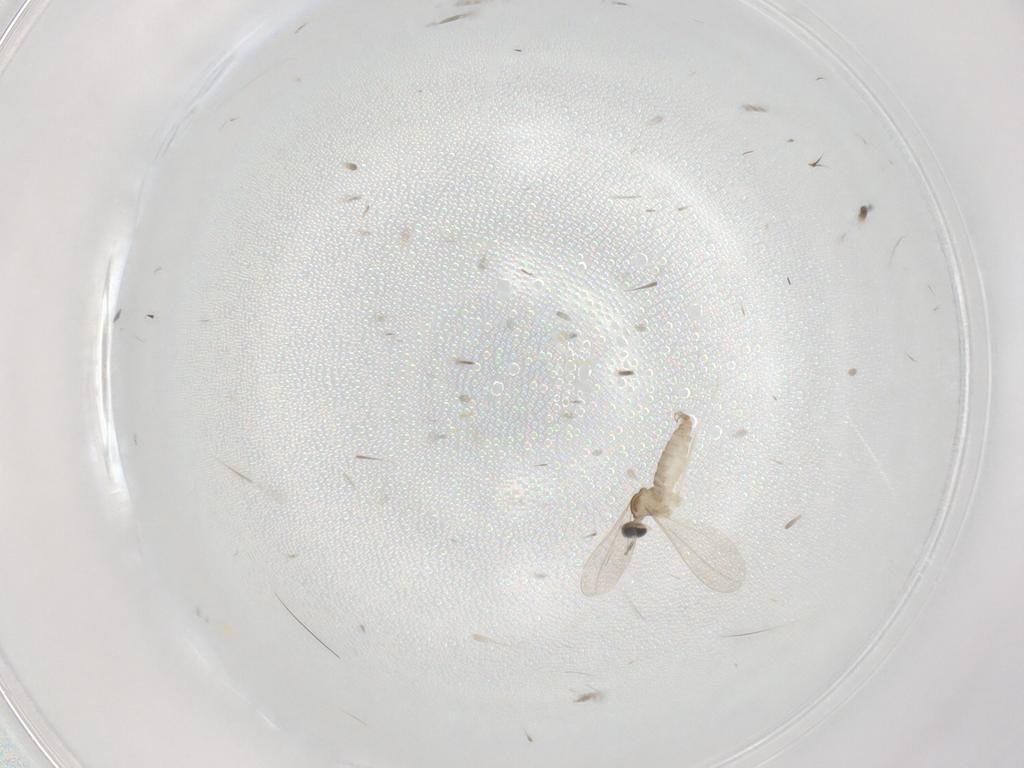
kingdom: Animalia
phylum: Arthropoda
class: Insecta
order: Diptera
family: Cecidomyiidae
